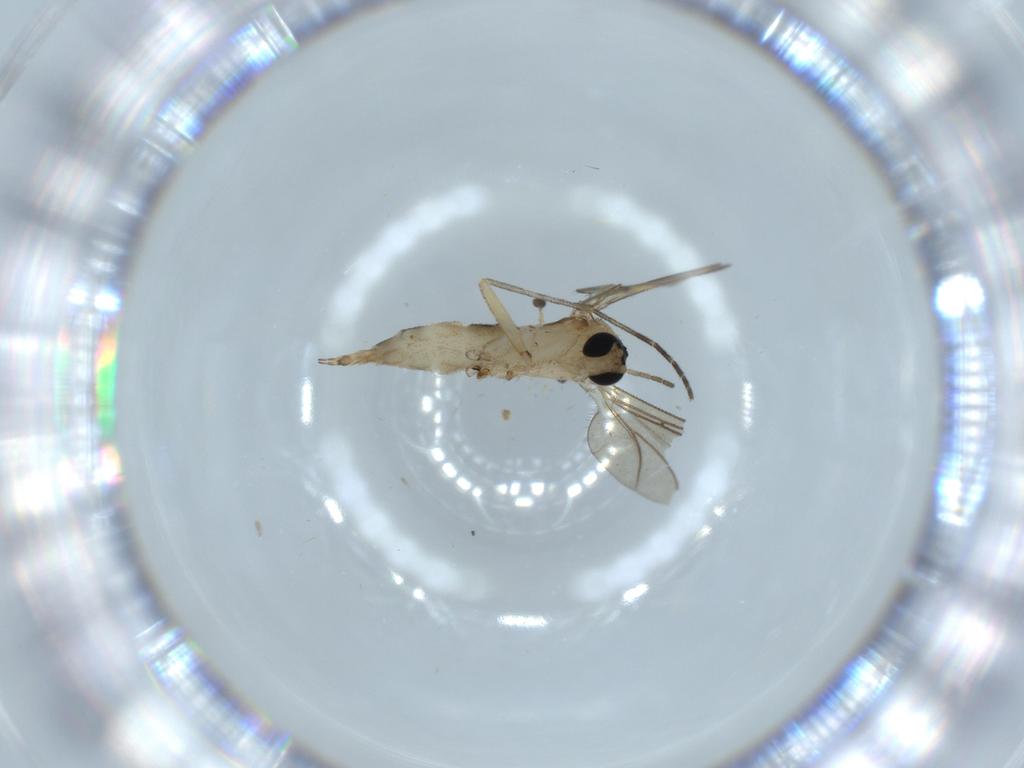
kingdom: Animalia
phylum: Arthropoda
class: Insecta
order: Diptera
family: Sciaridae
